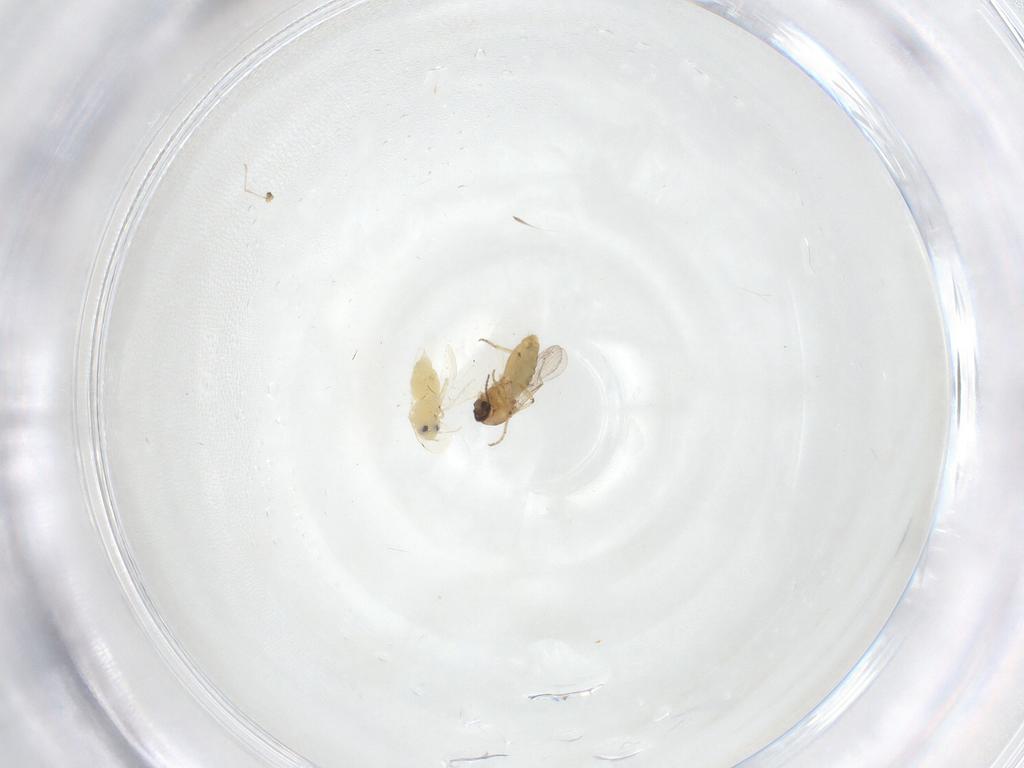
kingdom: Animalia
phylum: Arthropoda
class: Insecta
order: Diptera
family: Ceratopogonidae
